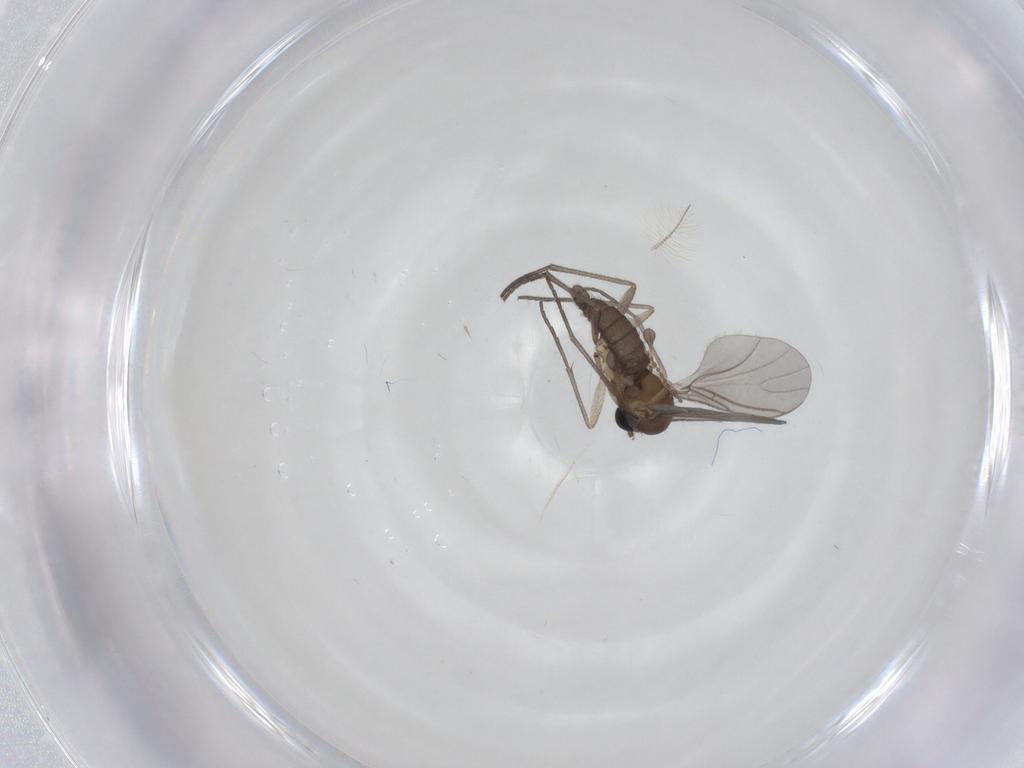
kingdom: Animalia
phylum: Arthropoda
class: Insecta
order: Diptera
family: Sciaridae
